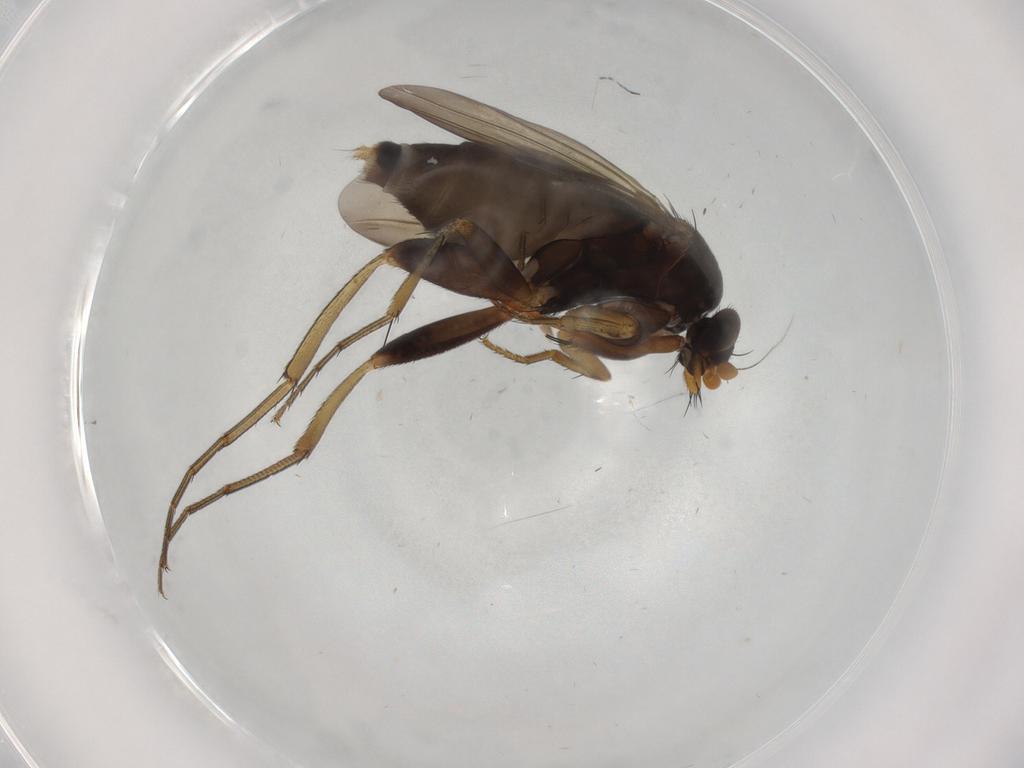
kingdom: Animalia
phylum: Arthropoda
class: Insecta
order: Diptera
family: Phoridae
